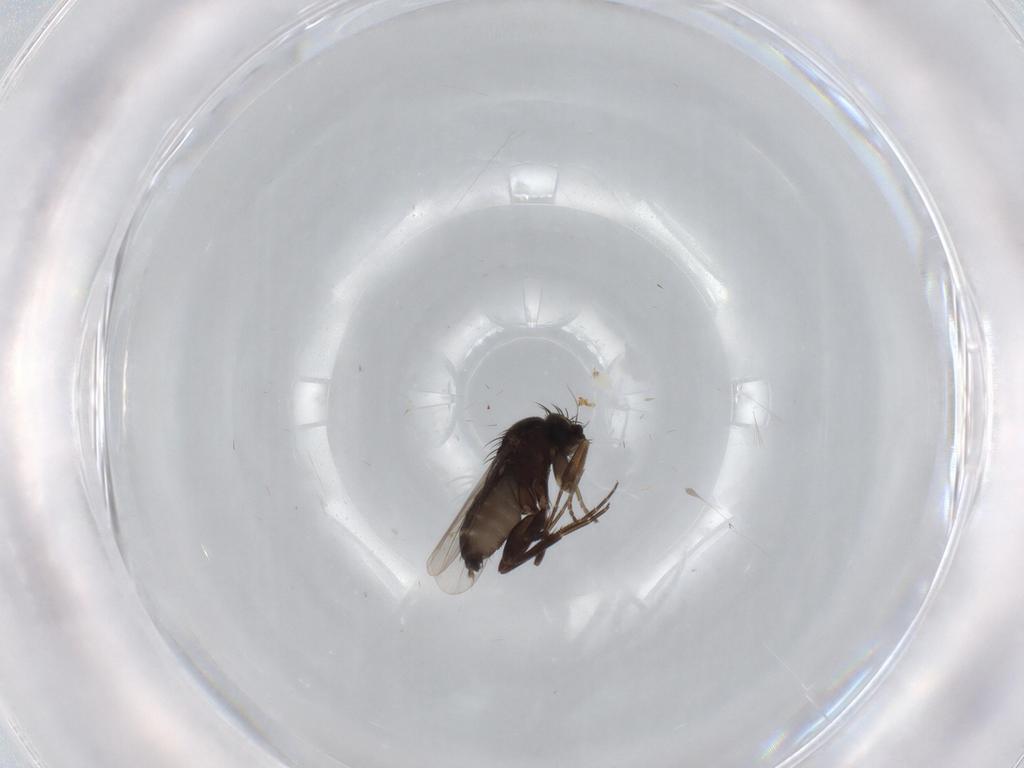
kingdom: Animalia
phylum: Arthropoda
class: Insecta
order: Diptera
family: Phoridae
